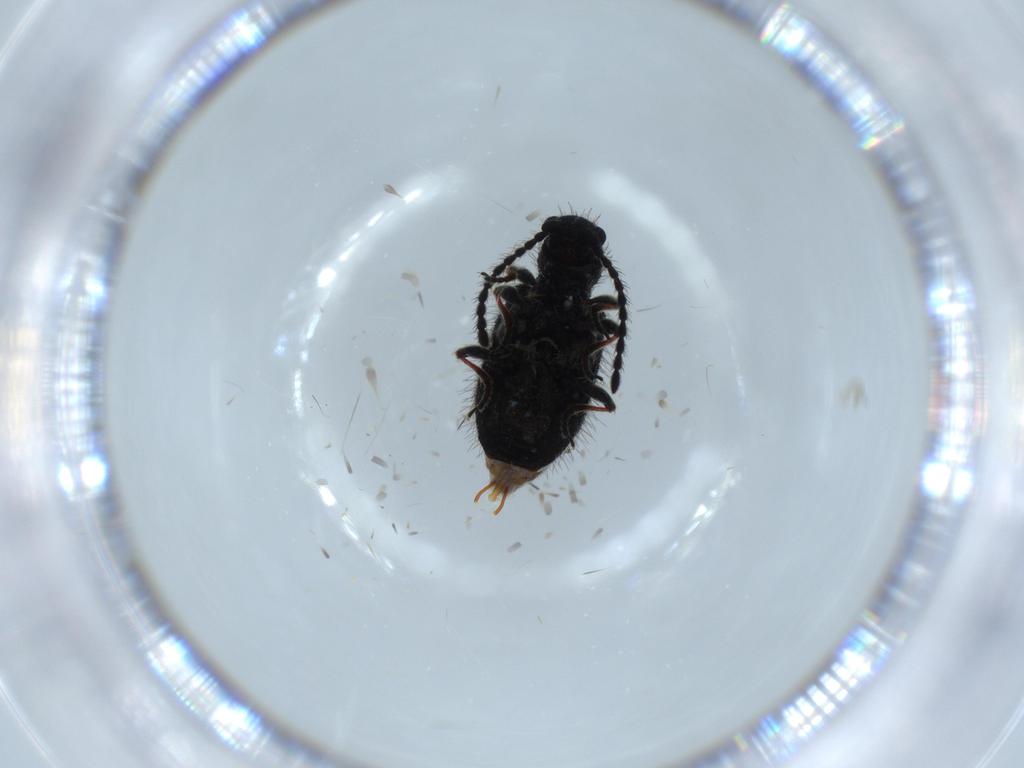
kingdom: Animalia
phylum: Arthropoda
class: Insecta
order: Coleoptera
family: Ptinidae
